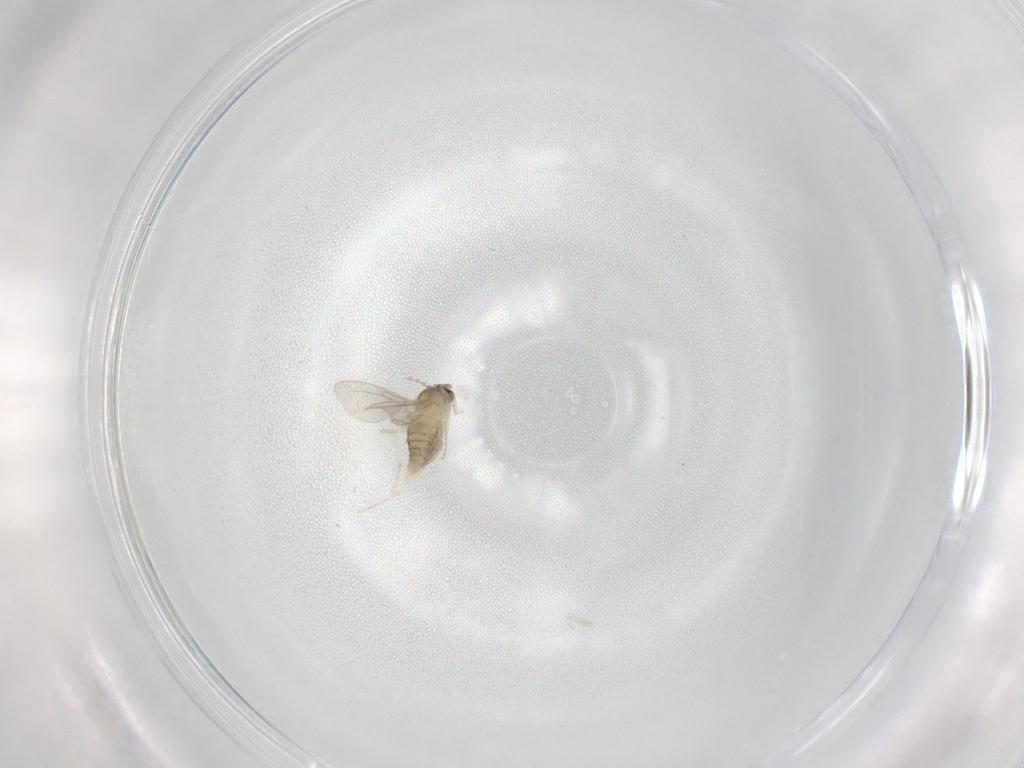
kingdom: Animalia
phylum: Arthropoda
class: Insecta
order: Diptera
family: Cecidomyiidae
